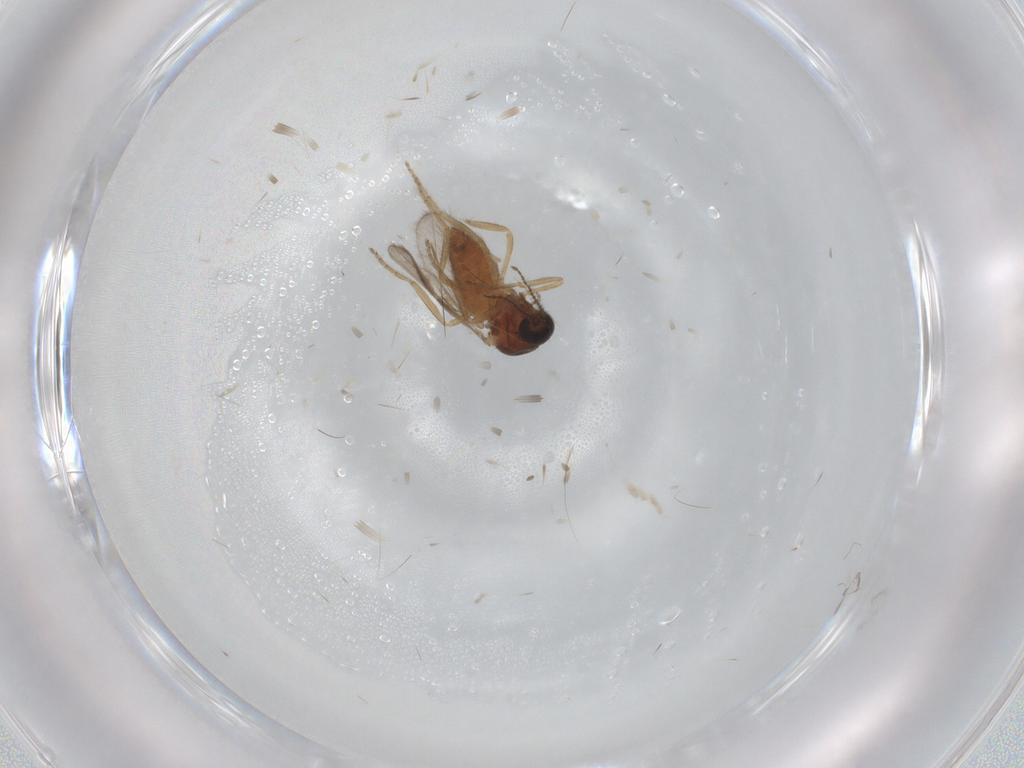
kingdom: Animalia
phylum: Arthropoda
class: Insecta
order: Diptera
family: Ceratopogonidae
